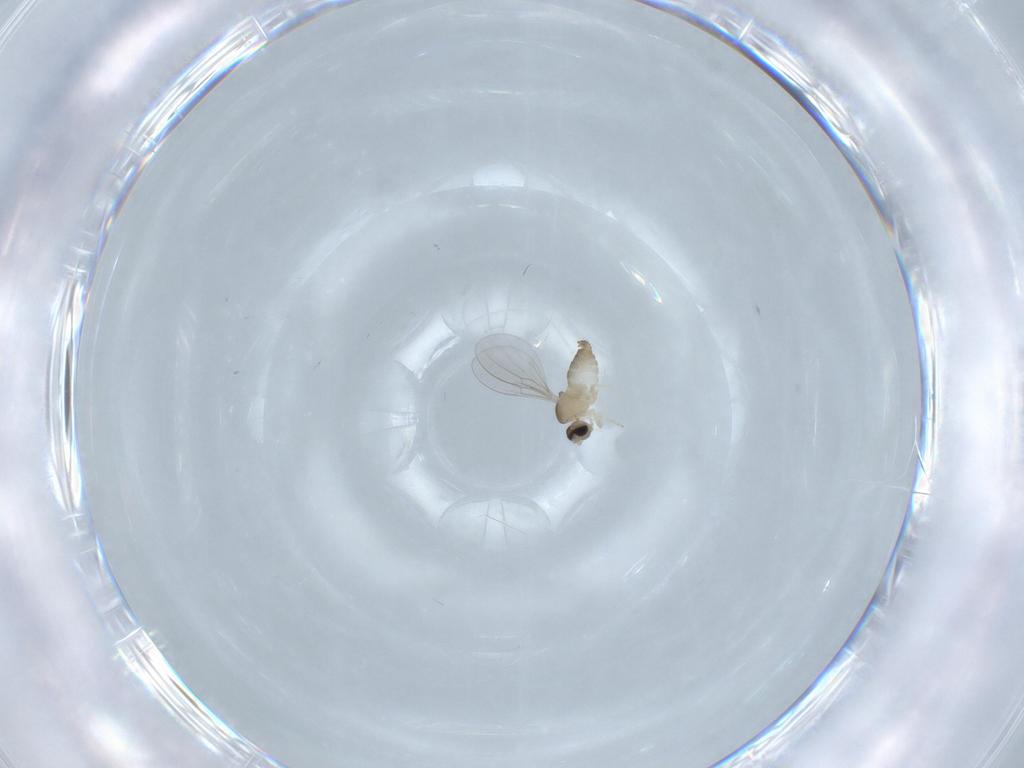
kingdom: Animalia
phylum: Arthropoda
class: Insecta
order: Diptera
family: Cecidomyiidae
